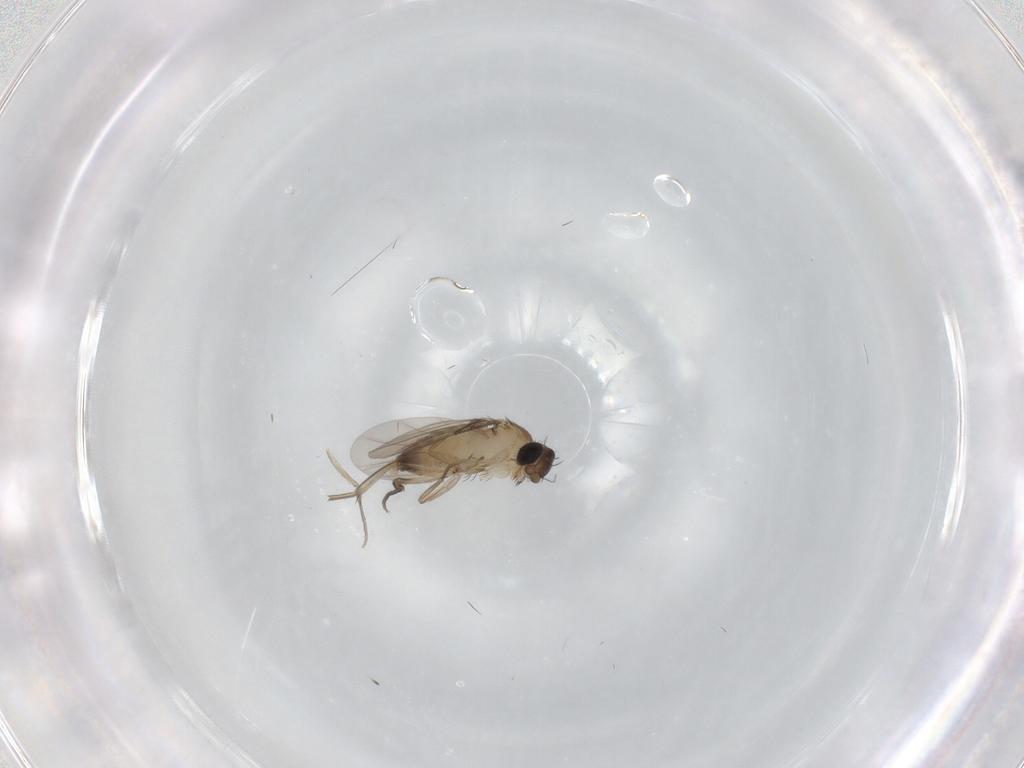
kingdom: Animalia
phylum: Arthropoda
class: Insecta
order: Diptera
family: Phoridae
